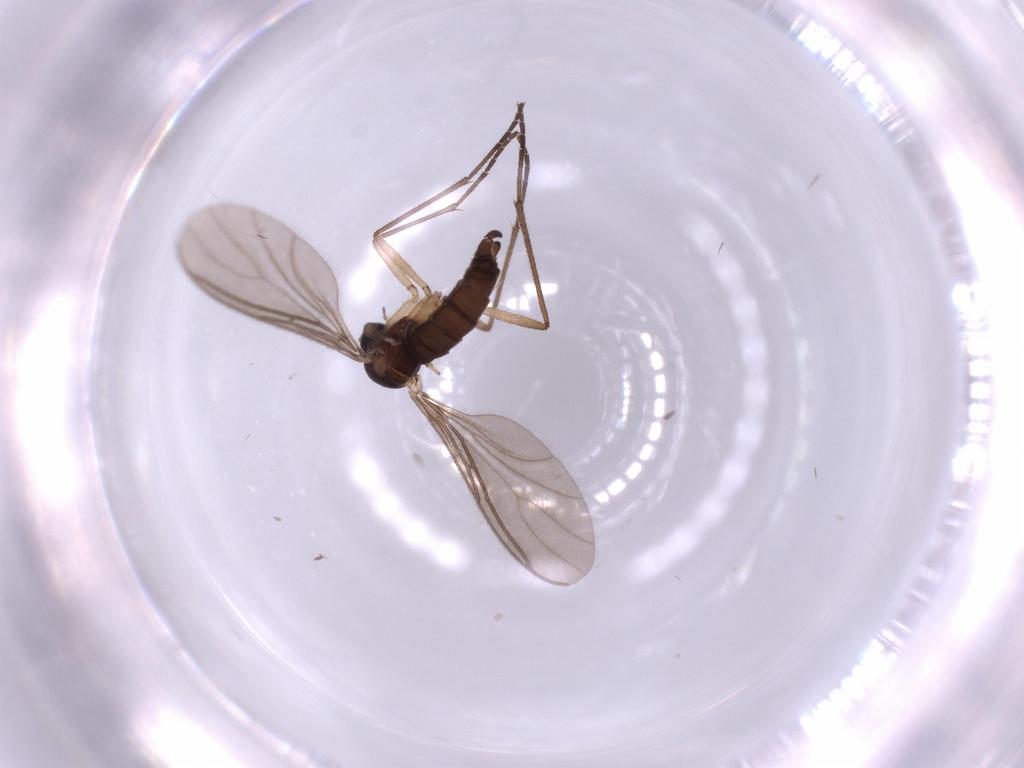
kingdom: Animalia
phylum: Arthropoda
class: Insecta
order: Diptera
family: Sciaridae
